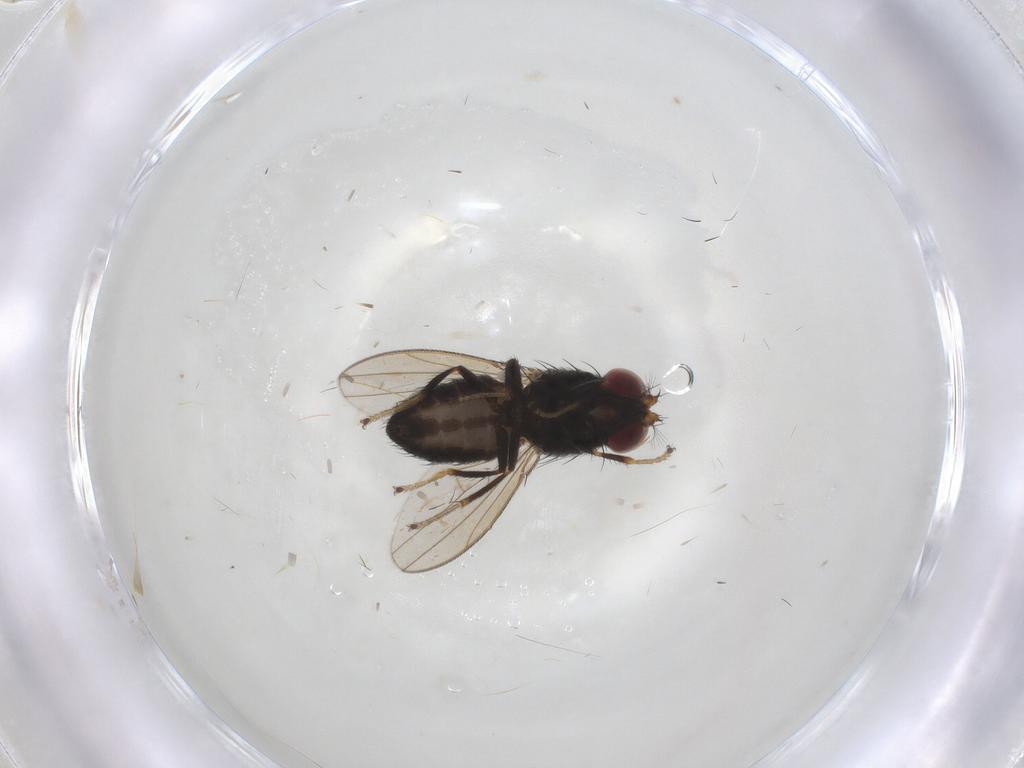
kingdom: Animalia
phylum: Arthropoda
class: Insecta
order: Diptera
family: Ephydridae
